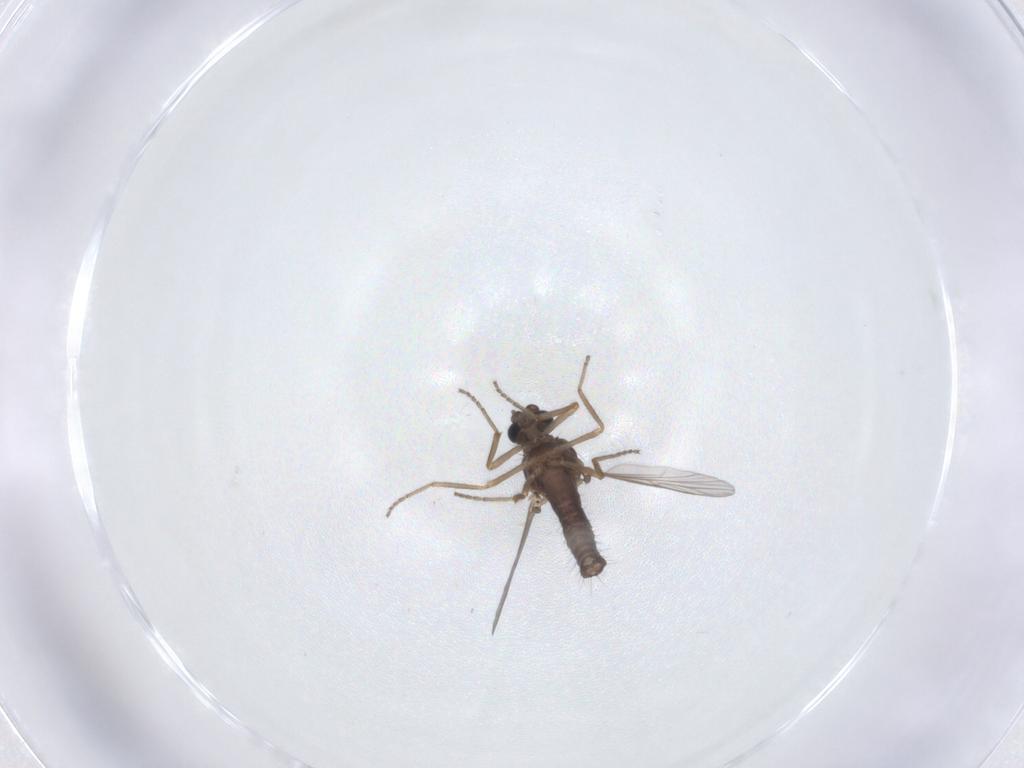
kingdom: Animalia
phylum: Arthropoda
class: Insecta
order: Diptera
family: Ceratopogonidae
